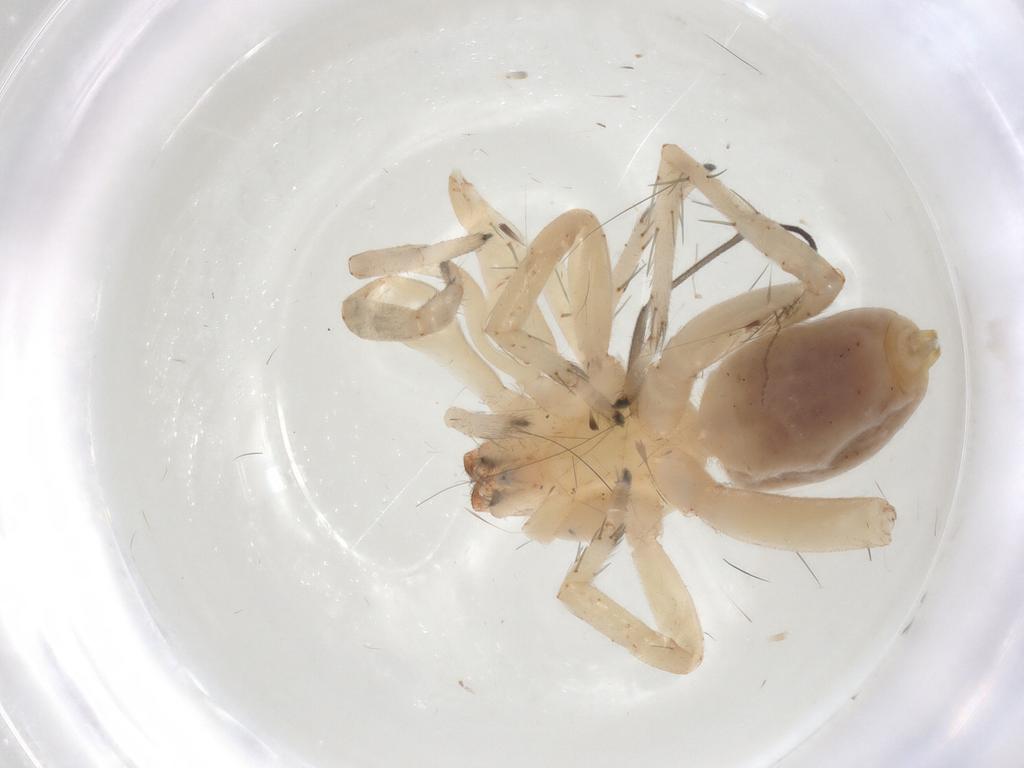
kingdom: Animalia
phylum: Arthropoda
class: Arachnida
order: Araneae
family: Clubionidae
